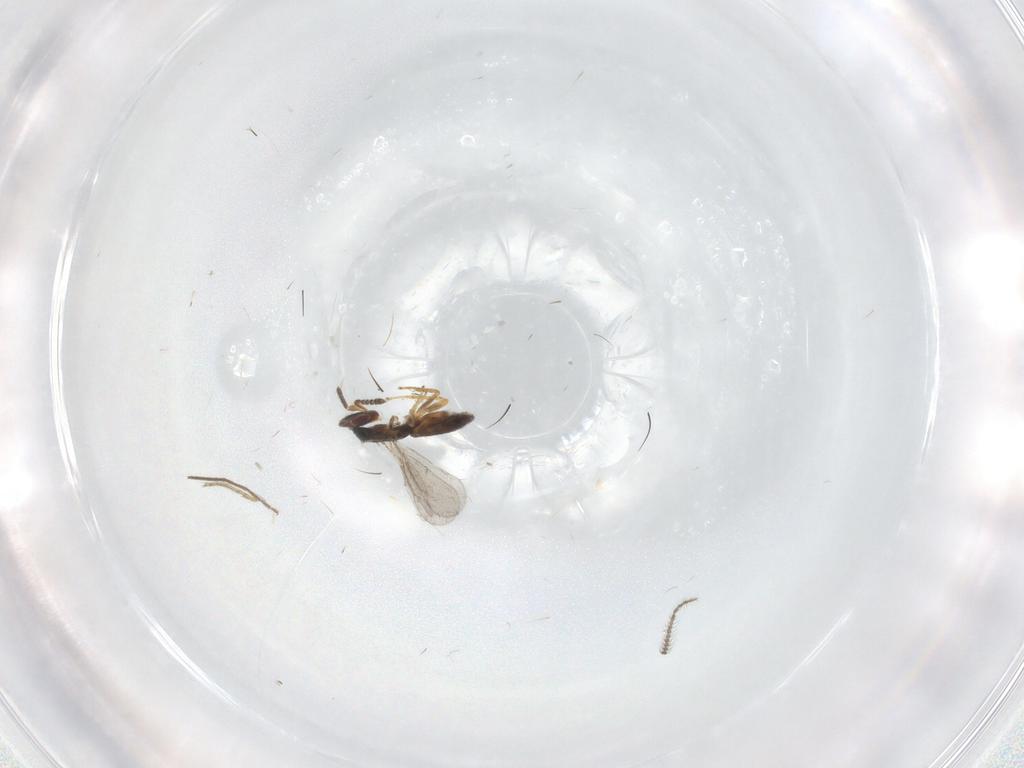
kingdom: Animalia
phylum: Arthropoda
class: Insecta
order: Hymenoptera
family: Eulophidae
